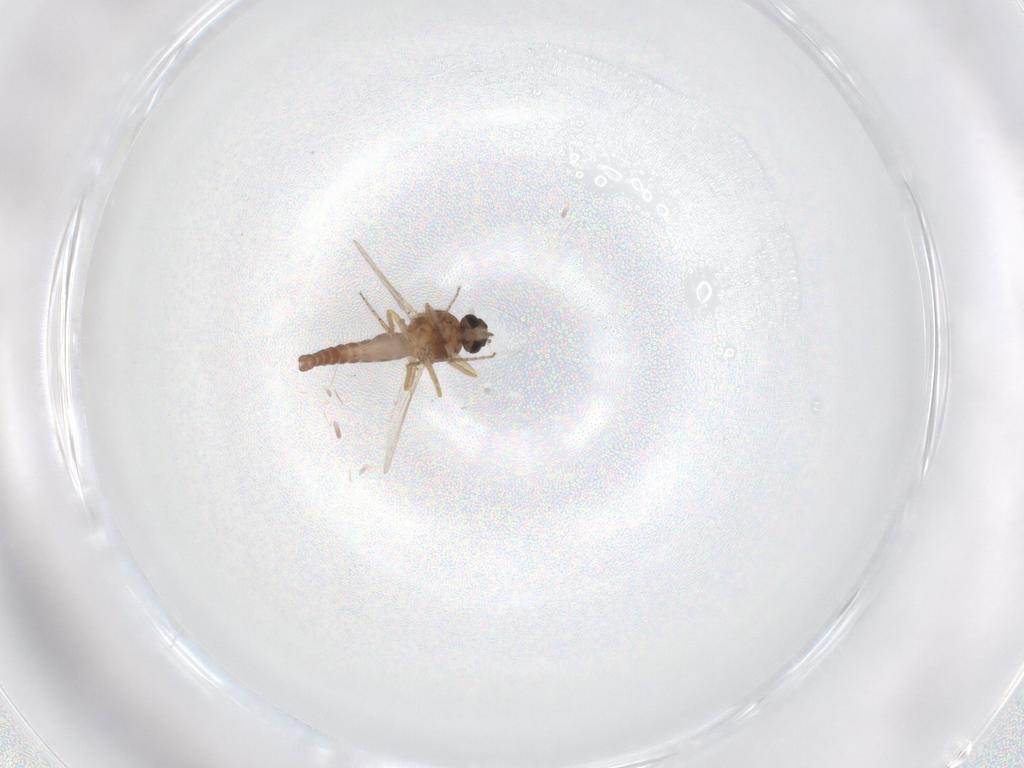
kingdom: Animalia
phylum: Arthropoda
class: Insecta
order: Diptera
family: Ceratopogonidae
